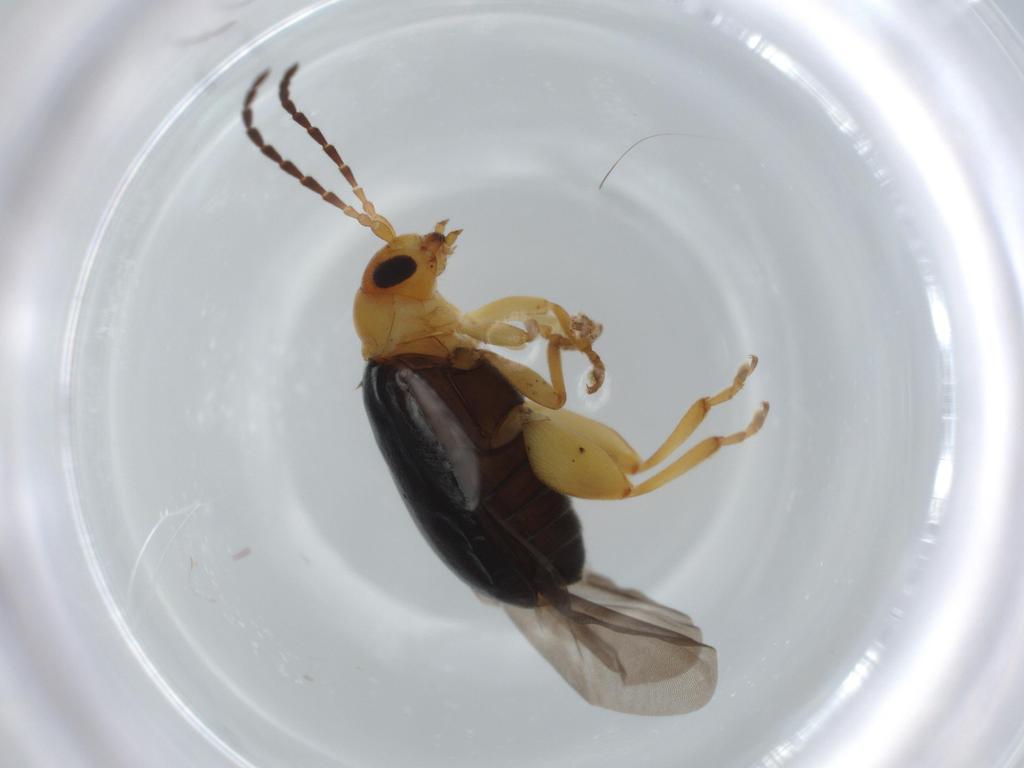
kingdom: Animalia
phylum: Arthropoda
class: Insecta
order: Coleoptera
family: Chrysomelidae
